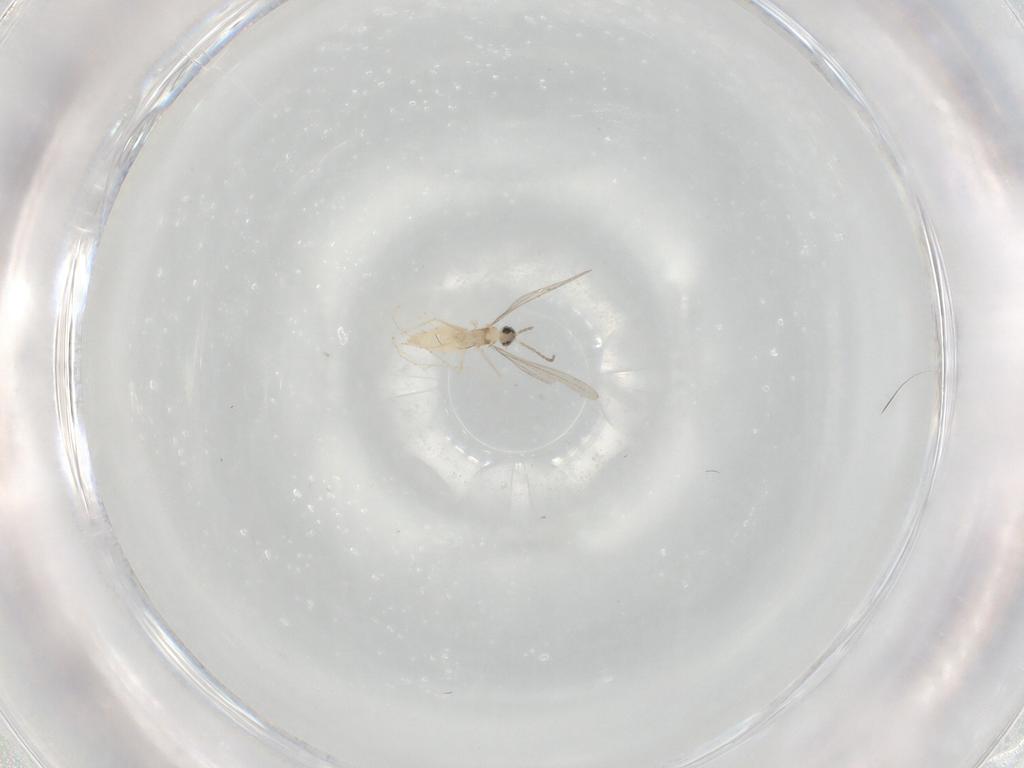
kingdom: Animalia
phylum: Arthropoda
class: Insecta
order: Diptera
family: Cecidomyiidae
